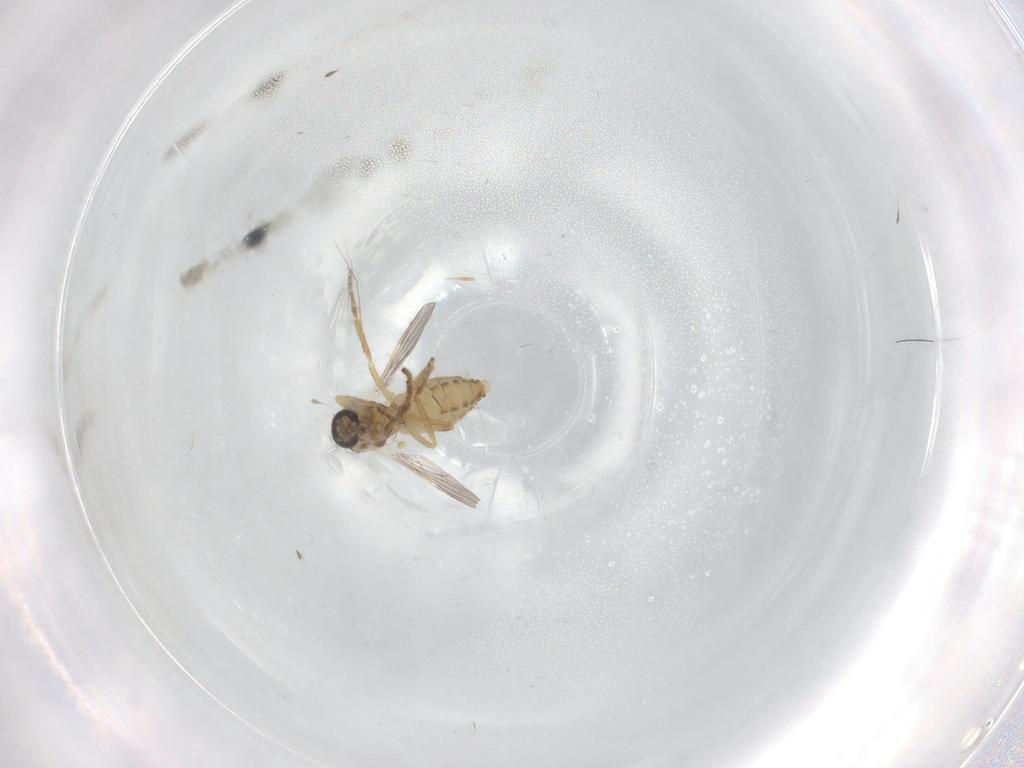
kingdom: Animalia
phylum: Arthropoda
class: Insecta
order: Diptera
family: Ceratopogonidae
